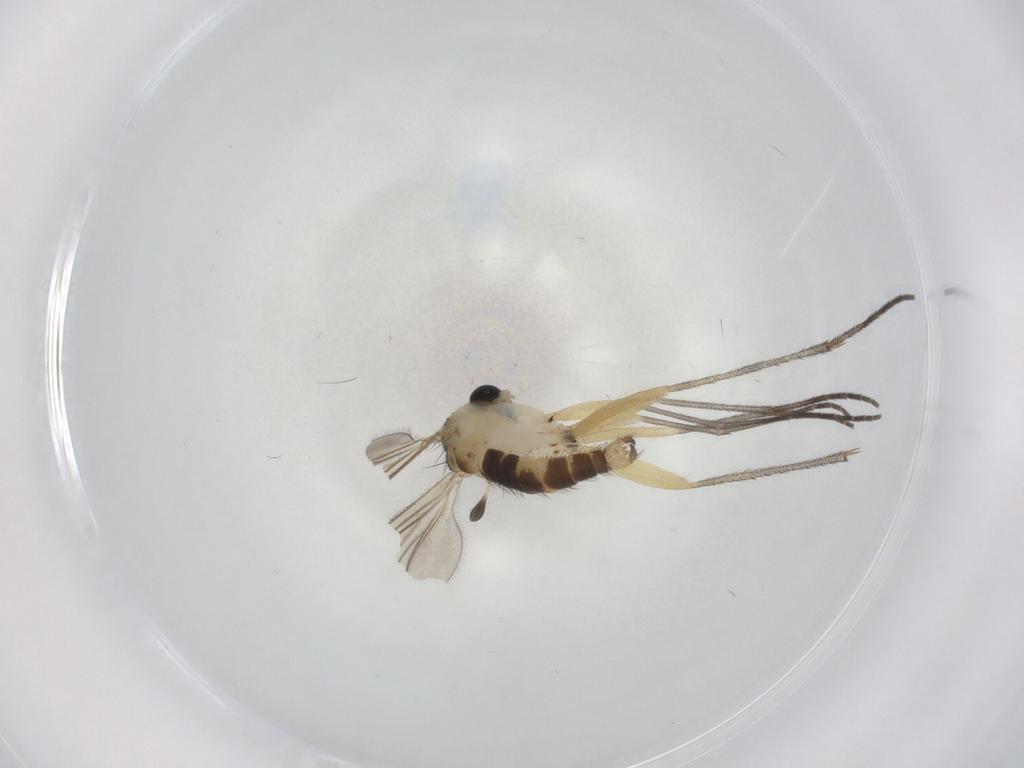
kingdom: Animalia
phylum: Arthropoda
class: Insecta
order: Diptera
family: Sciaridae
